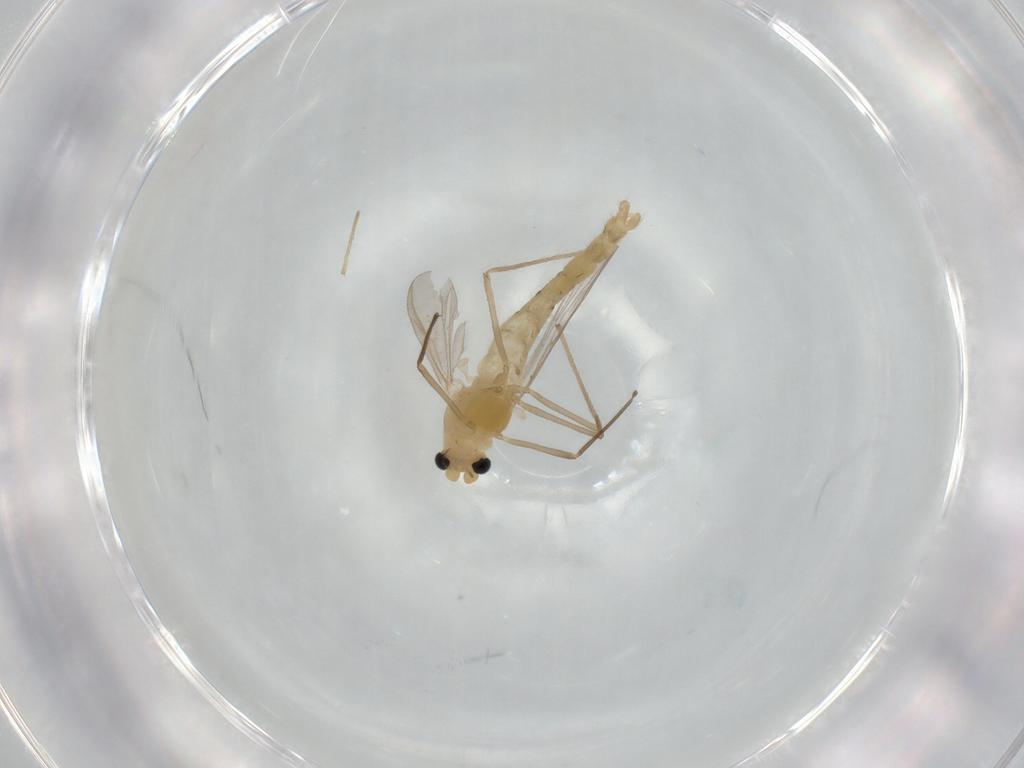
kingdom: Animalia
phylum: Arthropoda
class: Insecta
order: Diptera
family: Chironomidae
